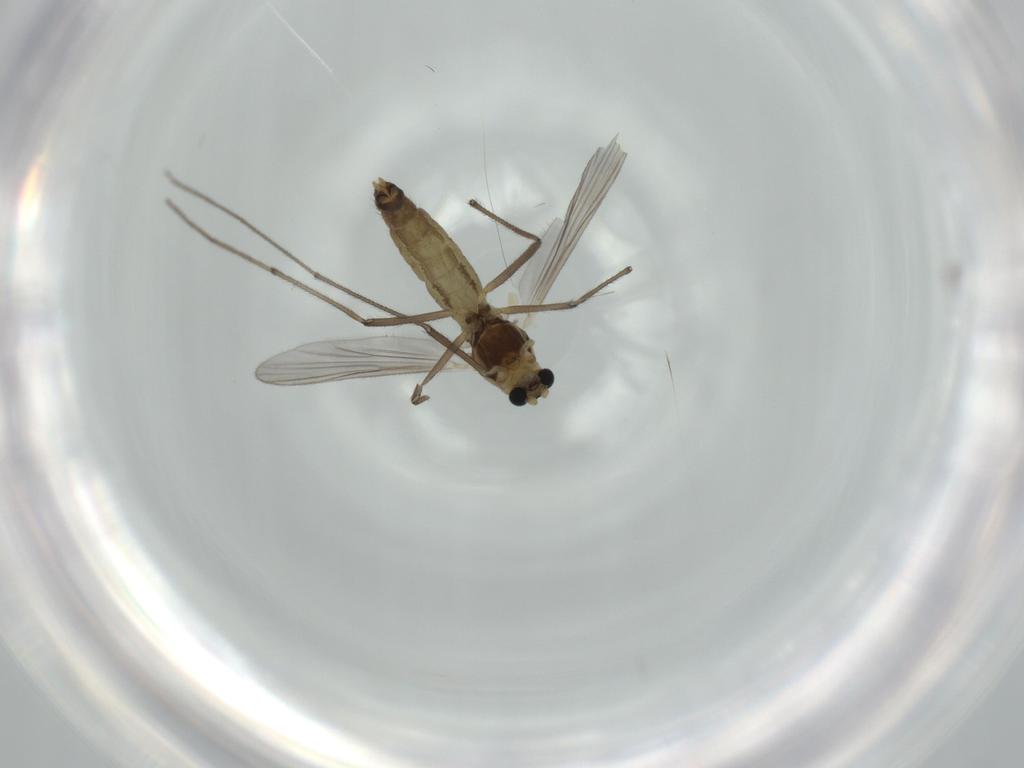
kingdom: Animalia
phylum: Arthropoda
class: Insecta
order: Diptera
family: Chironomidae
